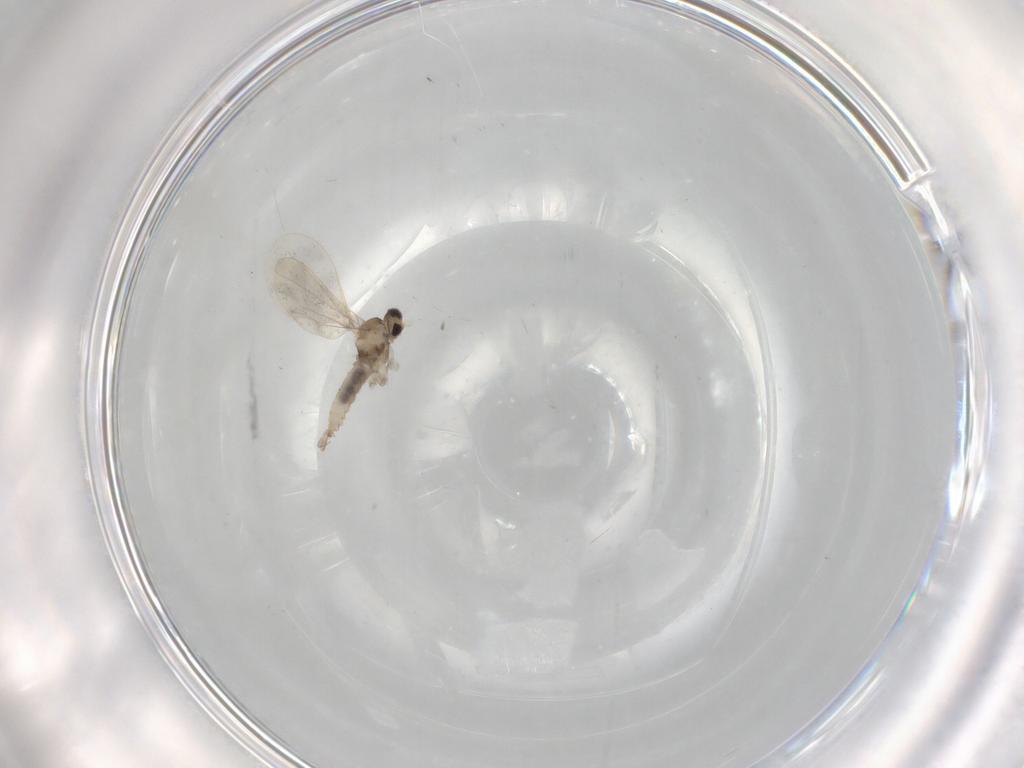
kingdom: Animalia
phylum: Arthropoda
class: Insecta
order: Diptera
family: Cecidomyiidae
